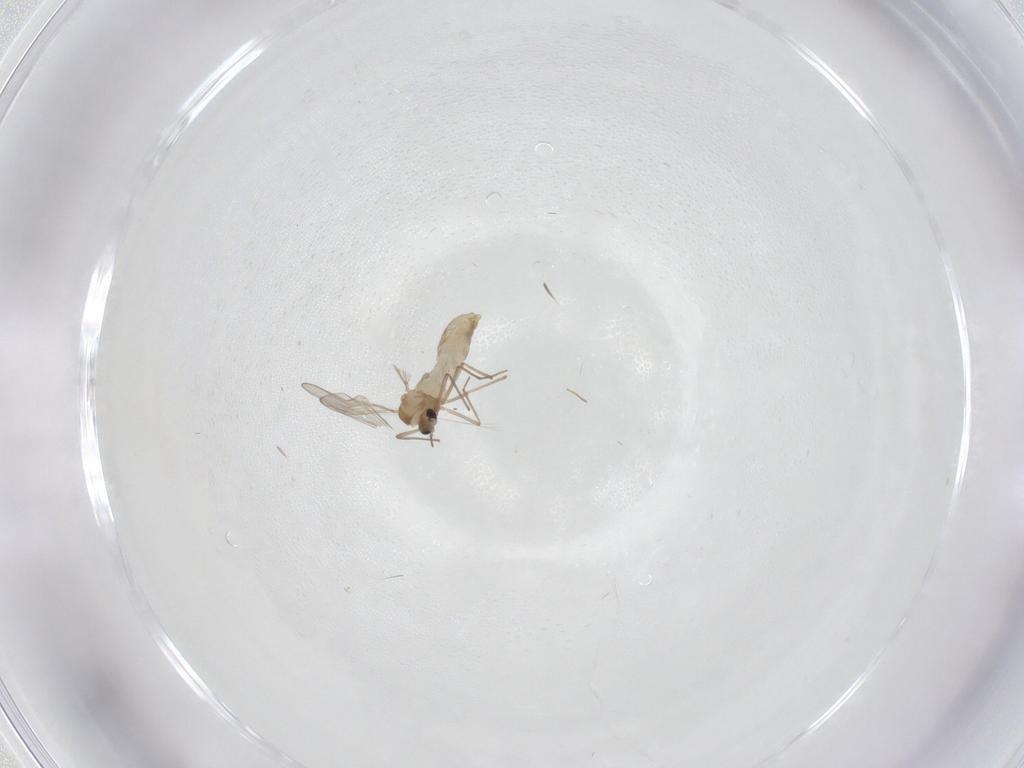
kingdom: Animalia
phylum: Arthropoda
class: Insecta
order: Diptera
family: Chironomidae
